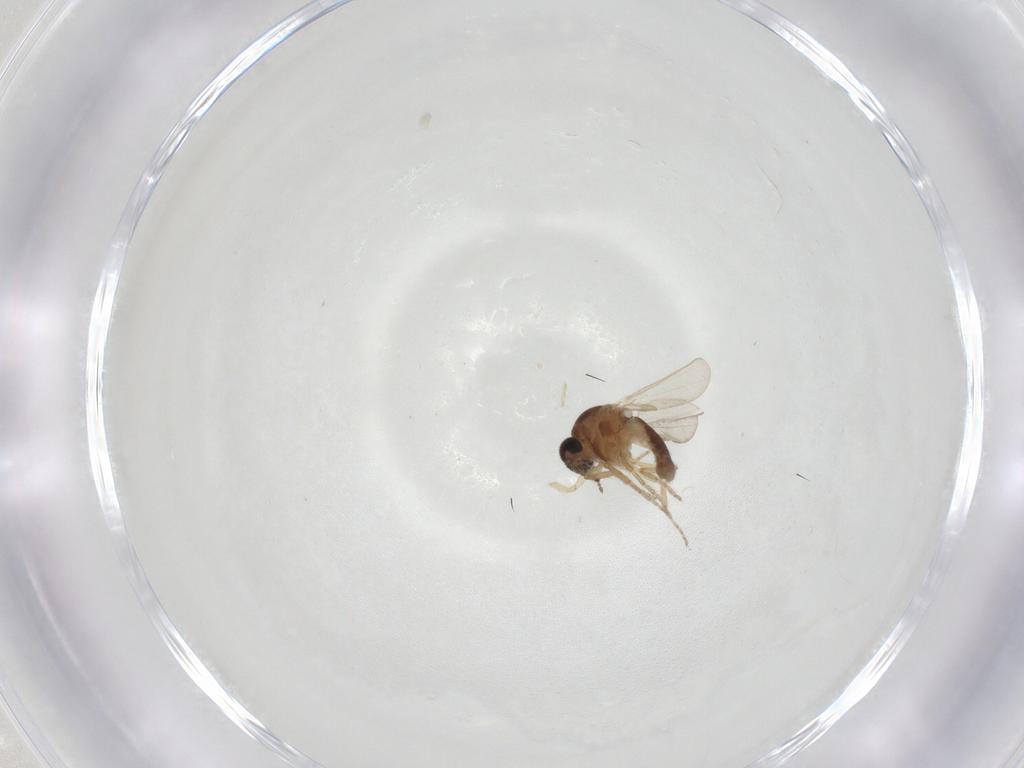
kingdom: Animalia
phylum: Arthropoda
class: Insecta
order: Diptera
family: Ceratopogonidae
